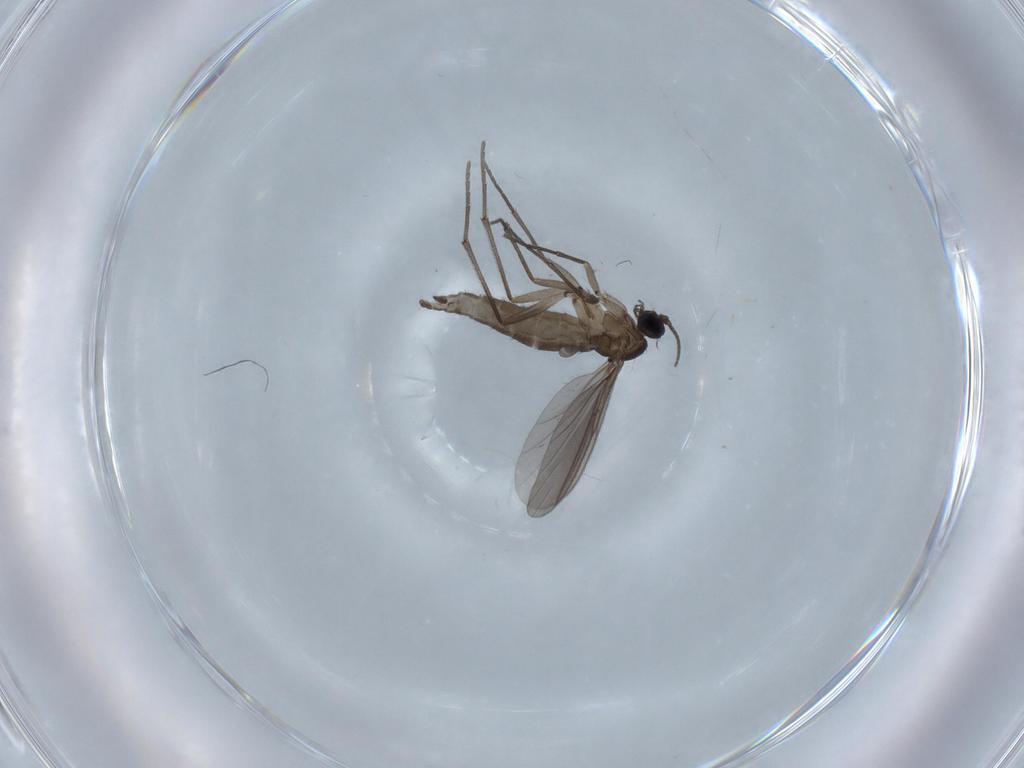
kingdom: Animalia
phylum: Arthropoda
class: Insecta
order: Diptera
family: Sciaridae
